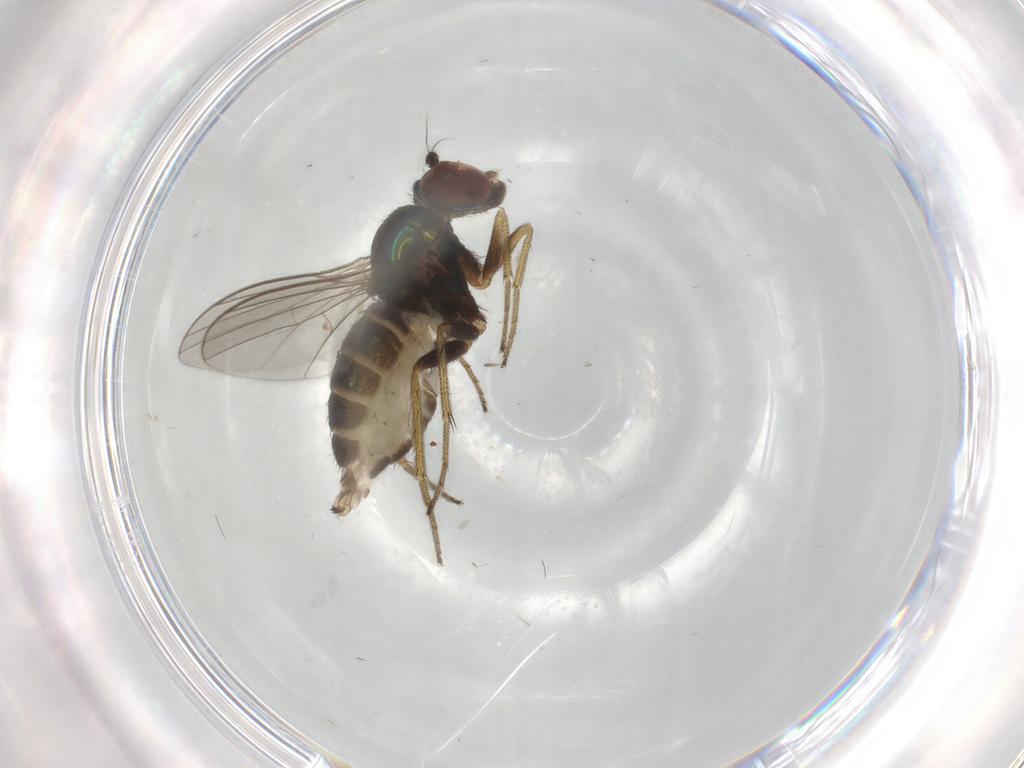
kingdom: Animalia
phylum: Arthropoda
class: Insecta
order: Diptera
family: Dolichopodidae
